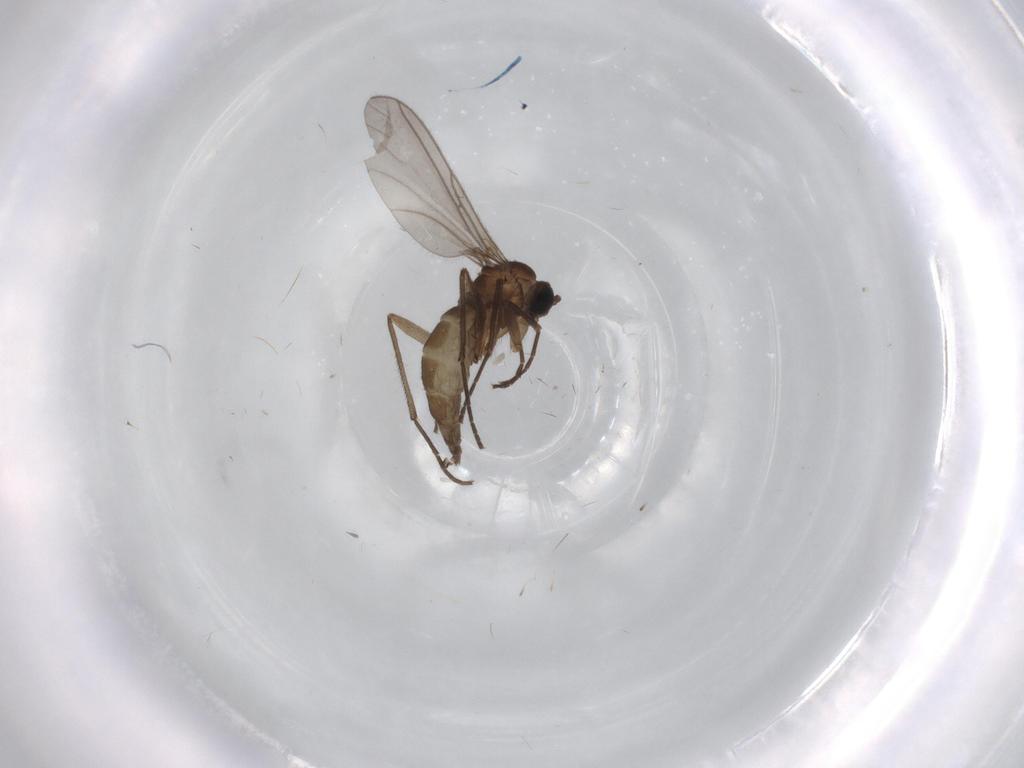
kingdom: Animalia
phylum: Arthropoda
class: Insecta
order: Diptera
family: Sciaridae
